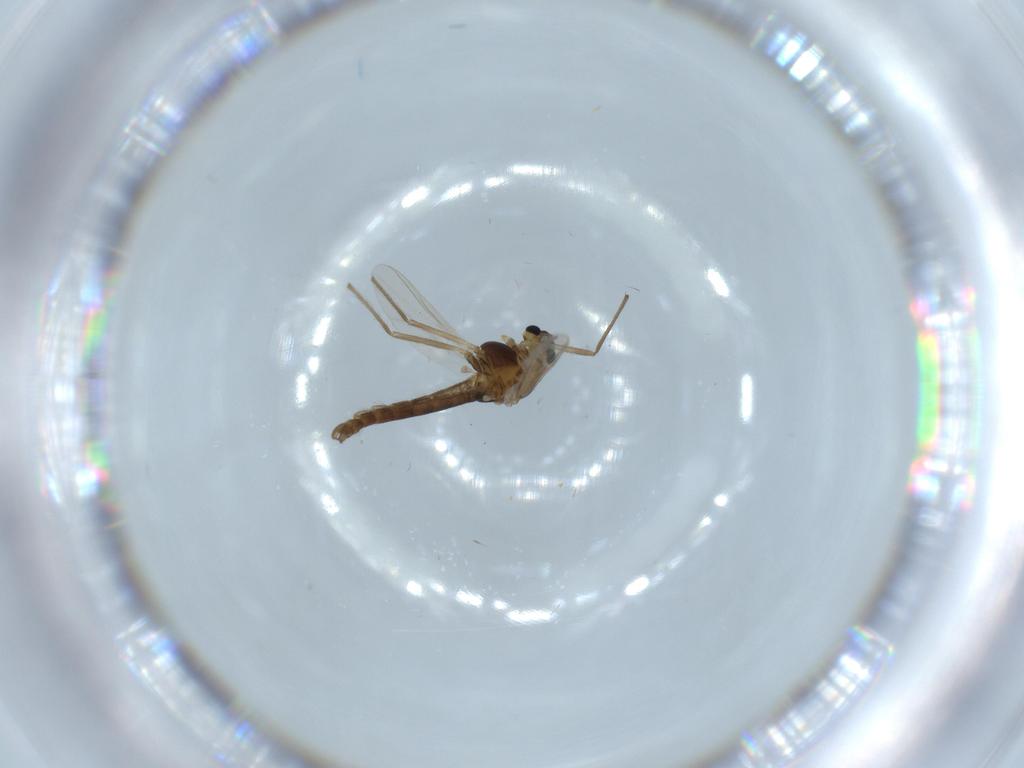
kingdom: Animalia
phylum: Arthropoda
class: Insecta
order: Diptera
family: Chironomidae
